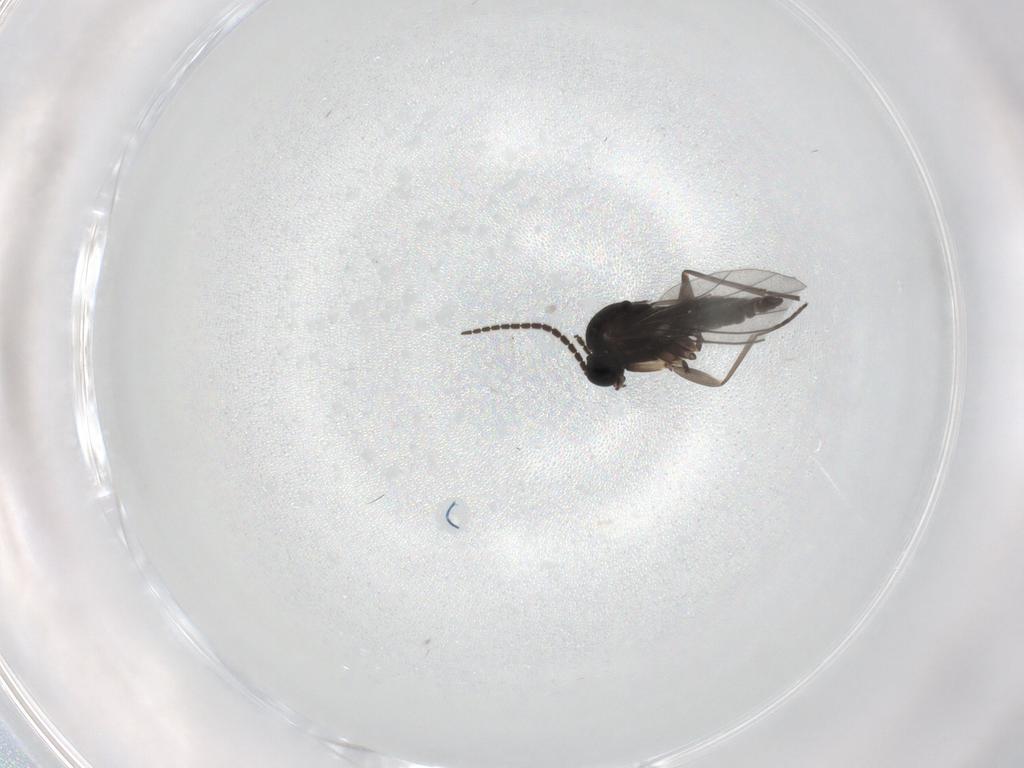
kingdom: Animalia
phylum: Arthropoda
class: Insecta
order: Diptera
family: Sciaridae
